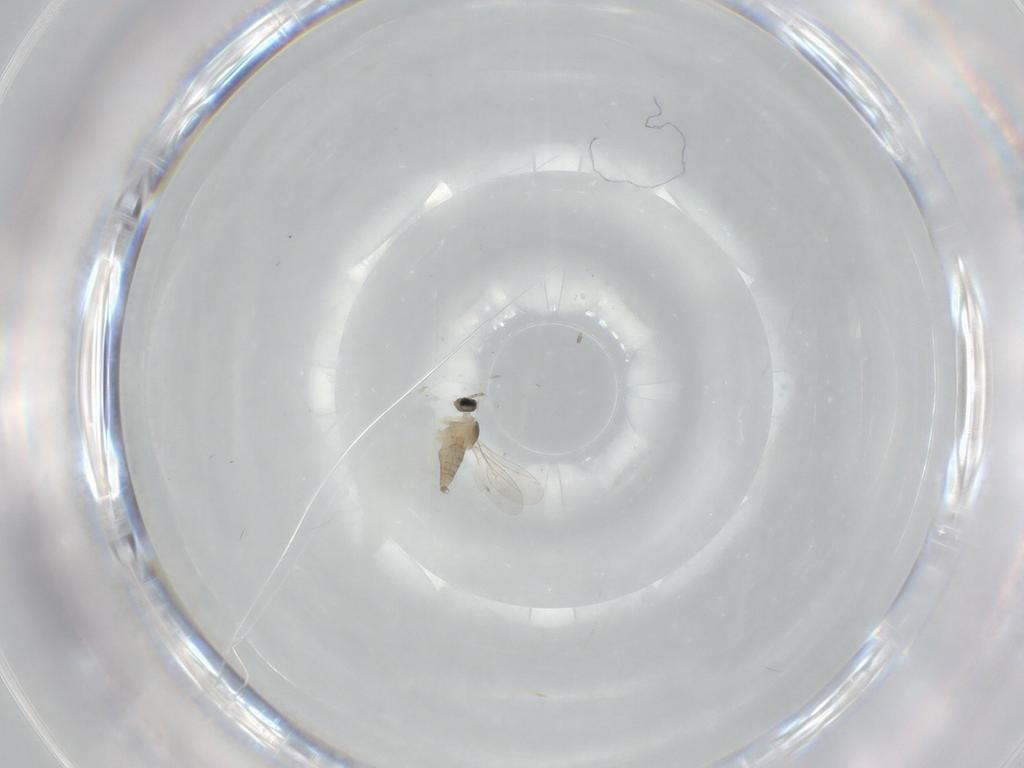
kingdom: Animalia
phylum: Arthropoda
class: Insecta
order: Diptera
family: Cecidomyiidae
